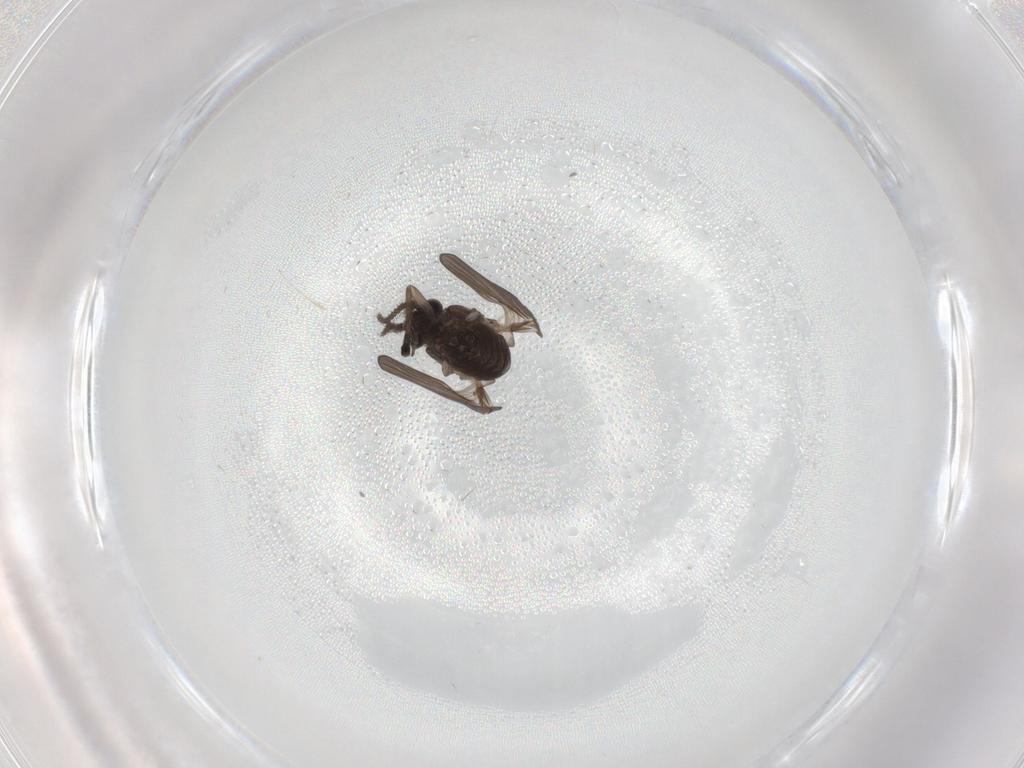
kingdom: Animalia
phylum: Arthropoda
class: Insecta
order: Diptera
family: Psychodidae
